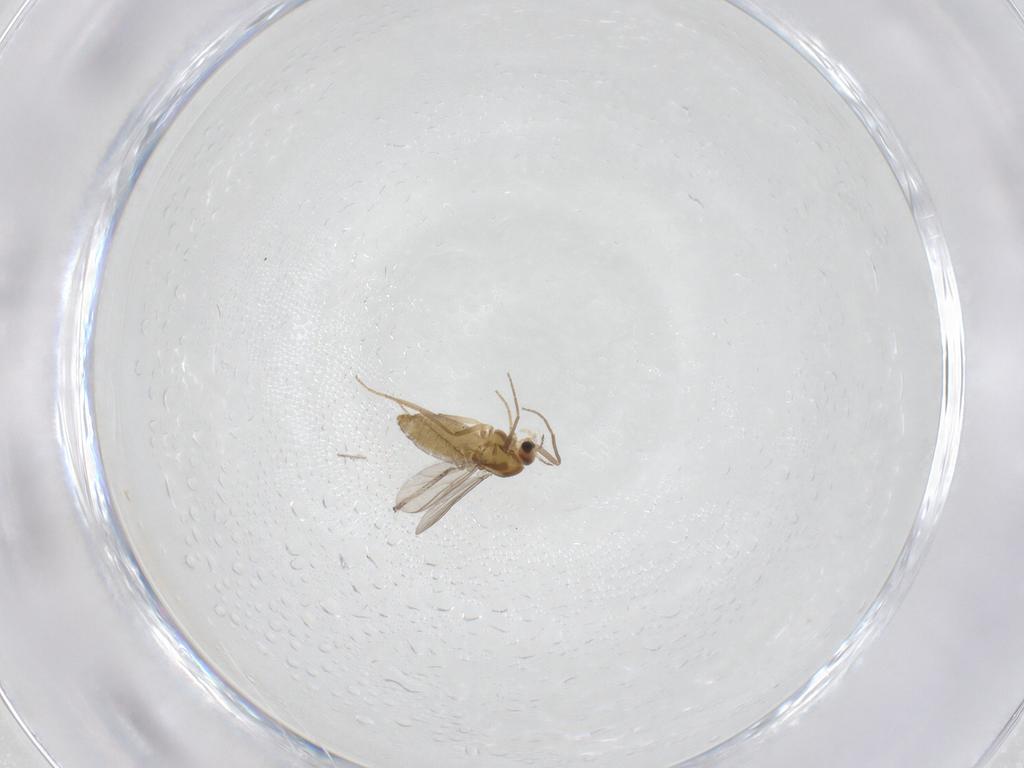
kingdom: Animalia
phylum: Arthropoda
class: Insecta
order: Diptera
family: Chironomidae
